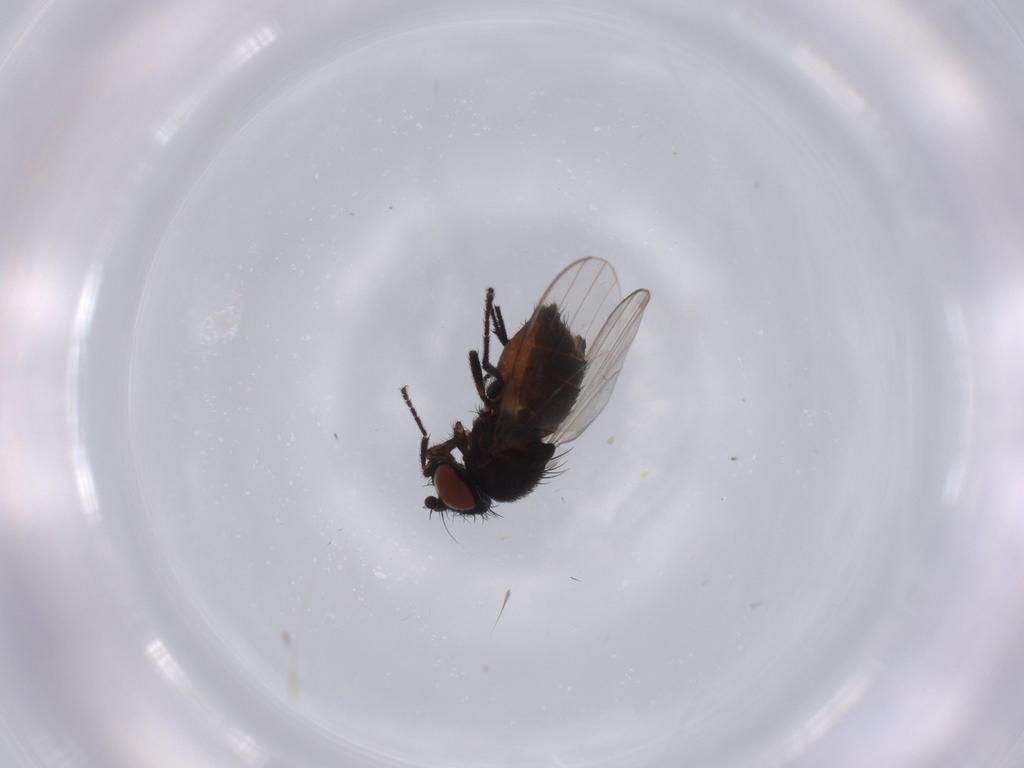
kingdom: Animalia
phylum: Arthropoda
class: Insecta
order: Diptera
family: Milichiidae
